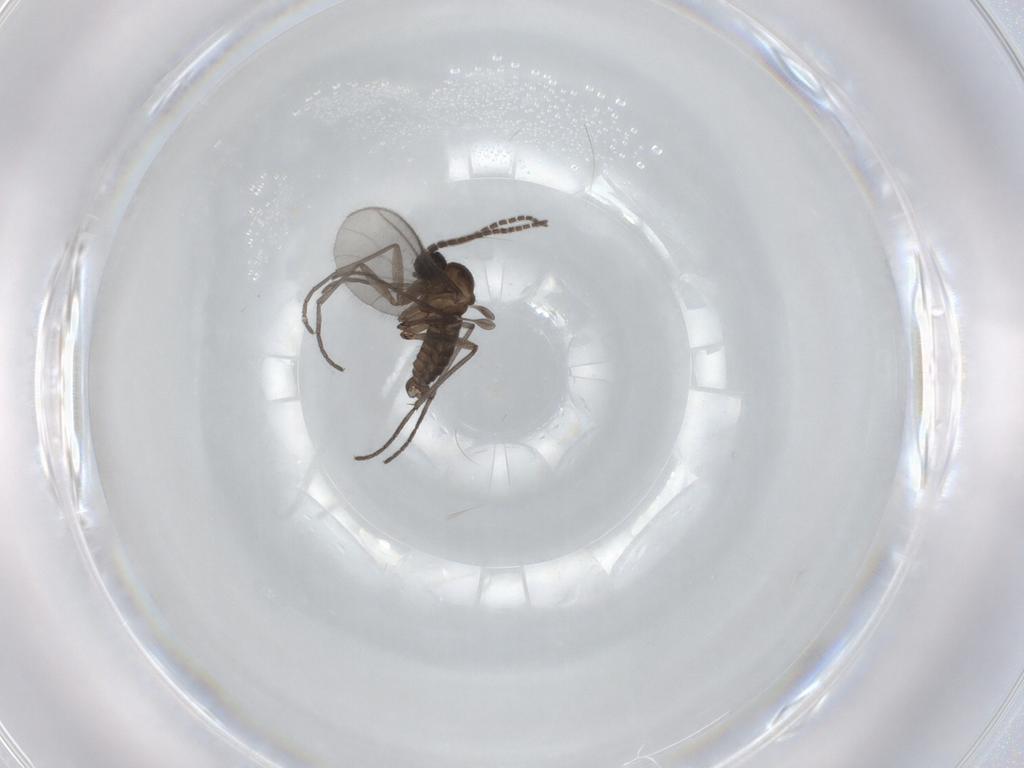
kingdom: Animalia
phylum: Arthropoda
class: Insecta
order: Diptera
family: Sciaridae
